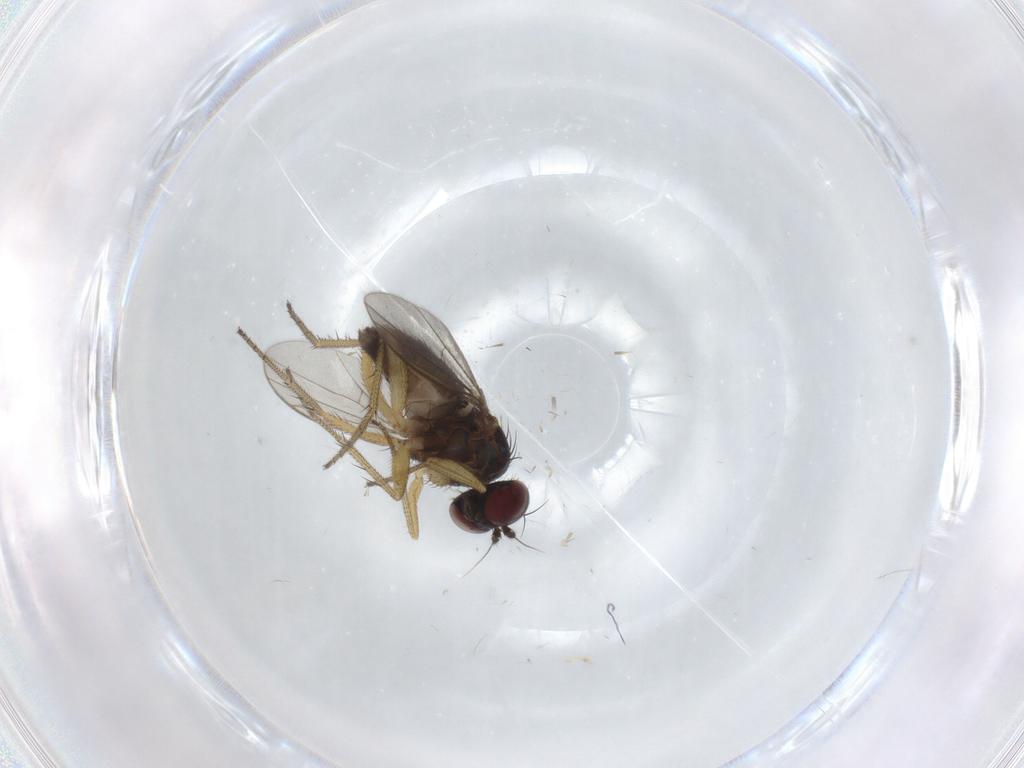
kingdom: Animalia
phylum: Arthropoda
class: Insecta
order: Diptera
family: Chironomidae
